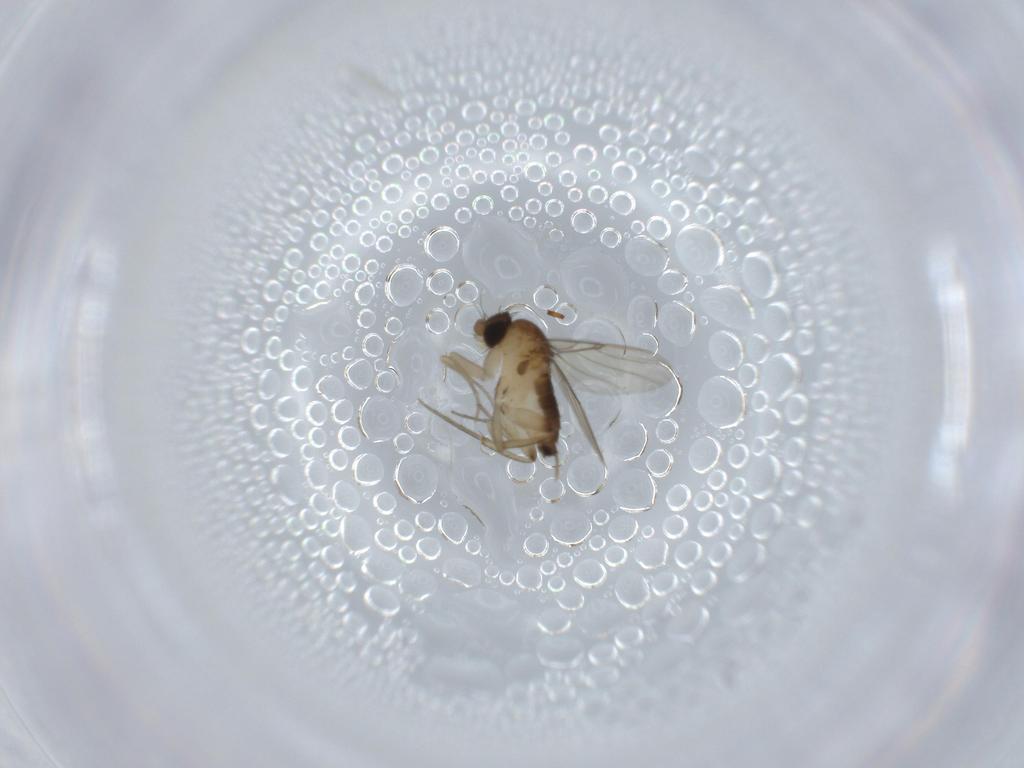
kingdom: Animalia
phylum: Arthropoda
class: Insecta
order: Diptera
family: Phoridae
